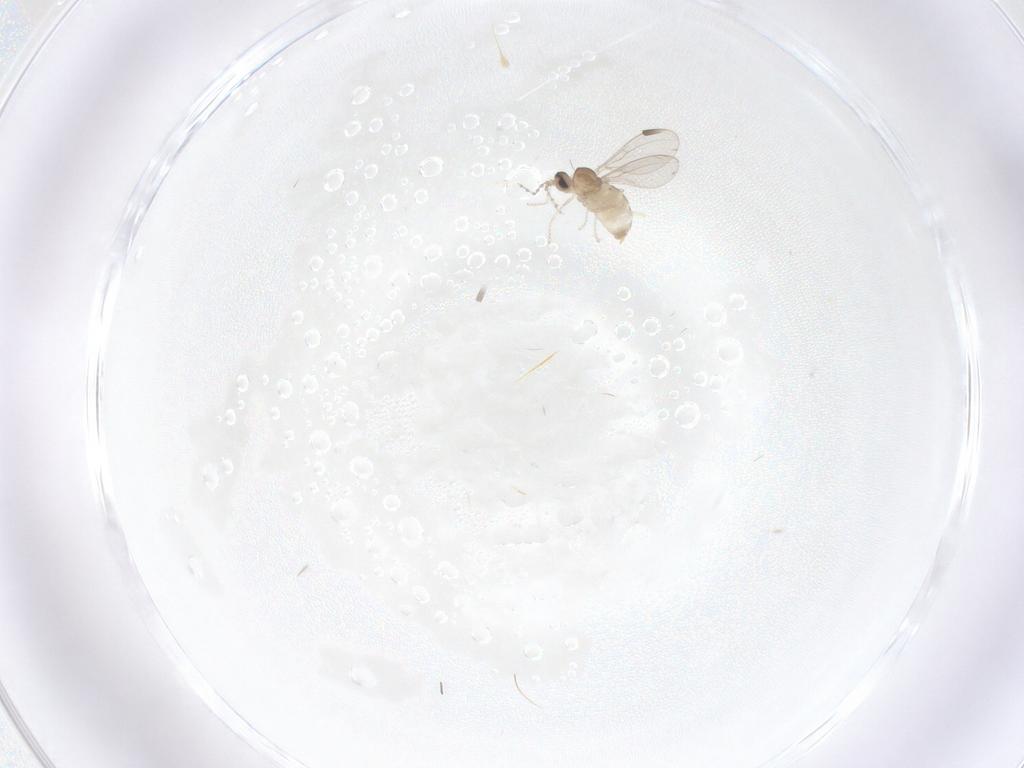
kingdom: Animalia
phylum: Arthropoda
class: Insecta
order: Diptera
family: Cecidomyiidae
